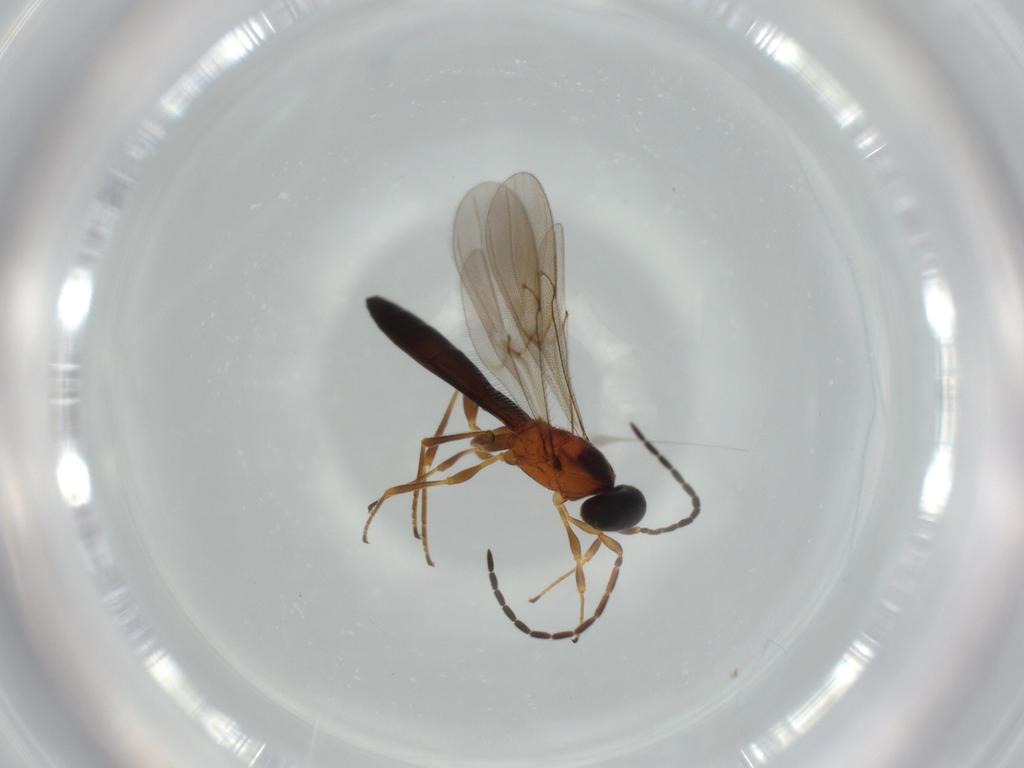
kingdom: Animalia
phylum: Arthropoda
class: Insecta
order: Hymenoptera
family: Scelionidae
